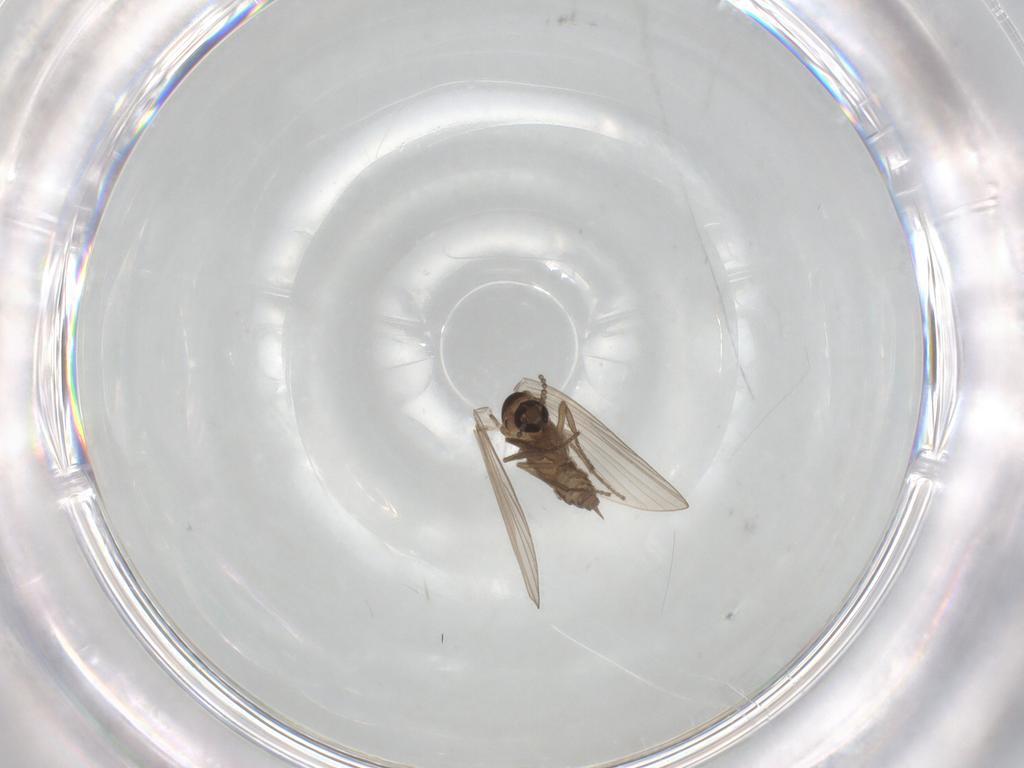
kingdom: Animalia
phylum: Arthropoda
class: Insecta
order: Diptera
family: Psychodidae
